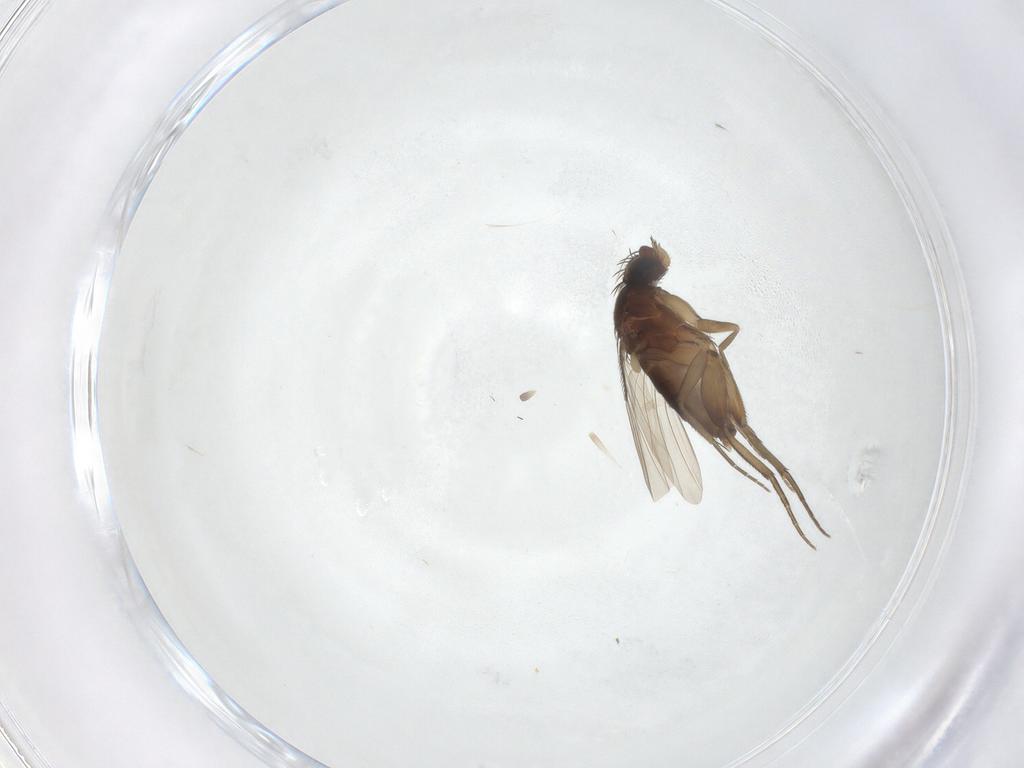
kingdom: Animalia
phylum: Arthropoda
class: Insecta
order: Diptera
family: Phoridae
